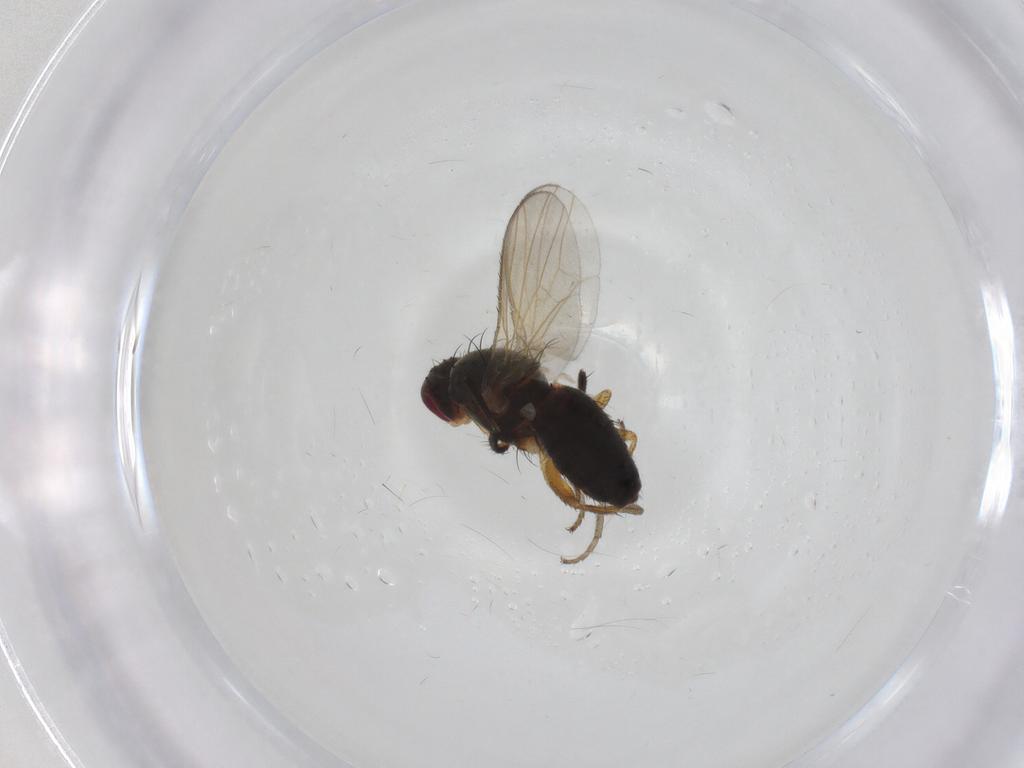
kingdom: Animalia
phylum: Arthropoda
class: Insecta
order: Diptera
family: Heleomyzidae
